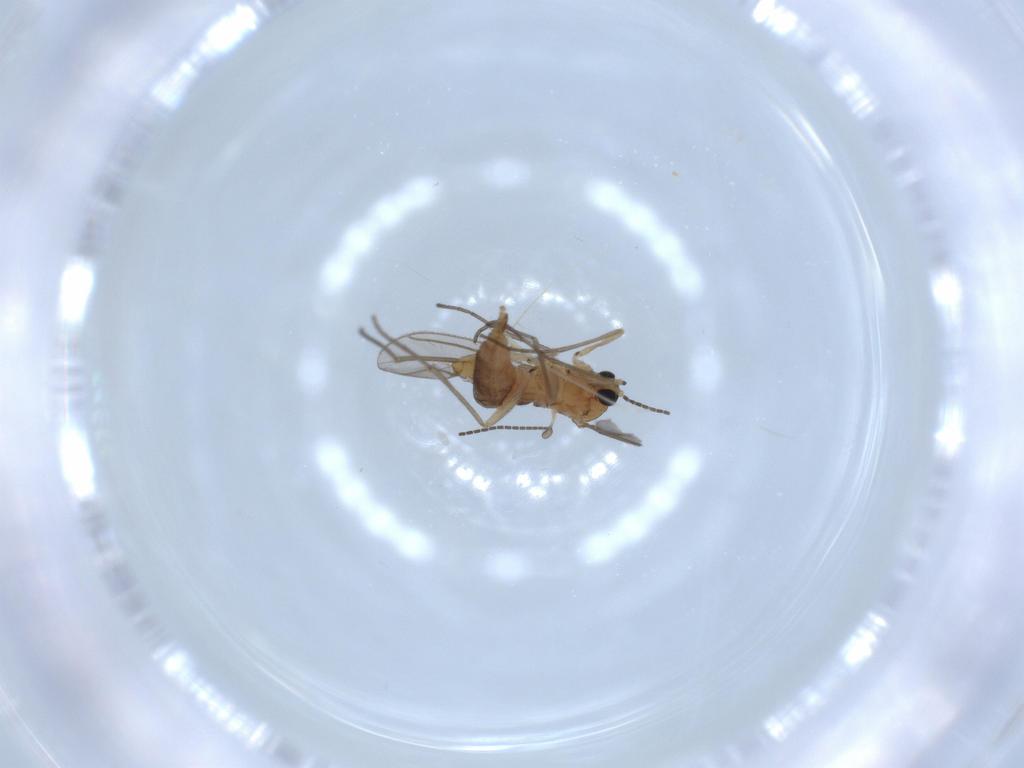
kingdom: Animalia
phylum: Arthropoda
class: Insecta
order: Diptera
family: Sciaridae
